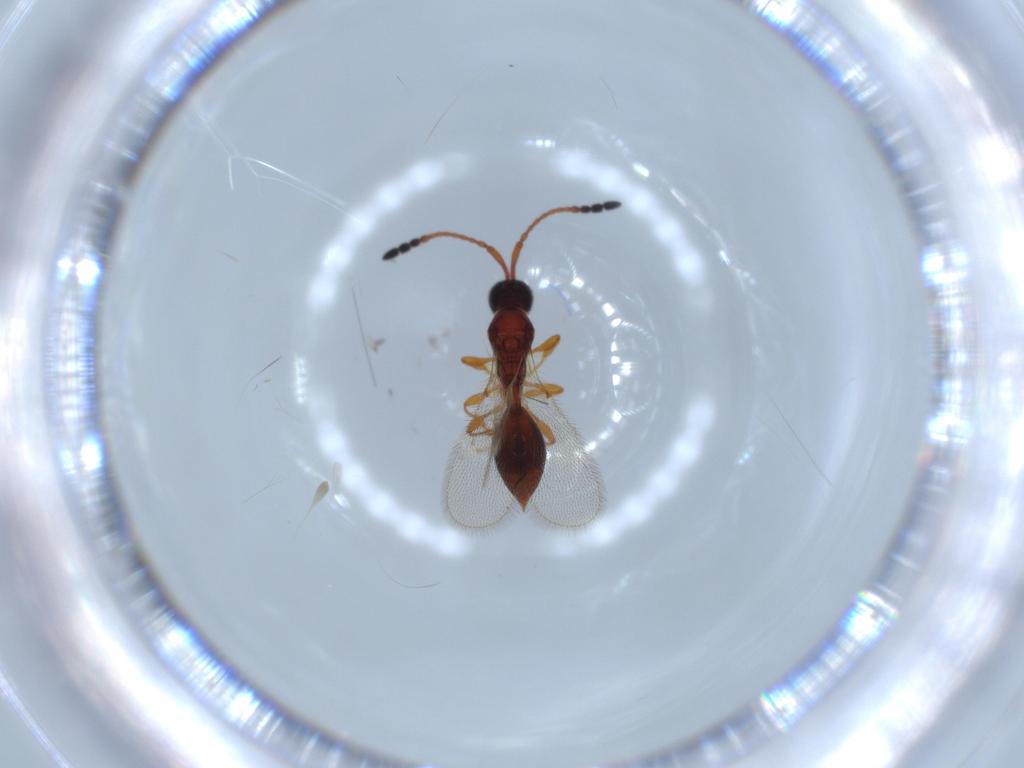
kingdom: Animalia
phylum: Arthropoda
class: Insecta
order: Hymenoptera
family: Diapriidae
